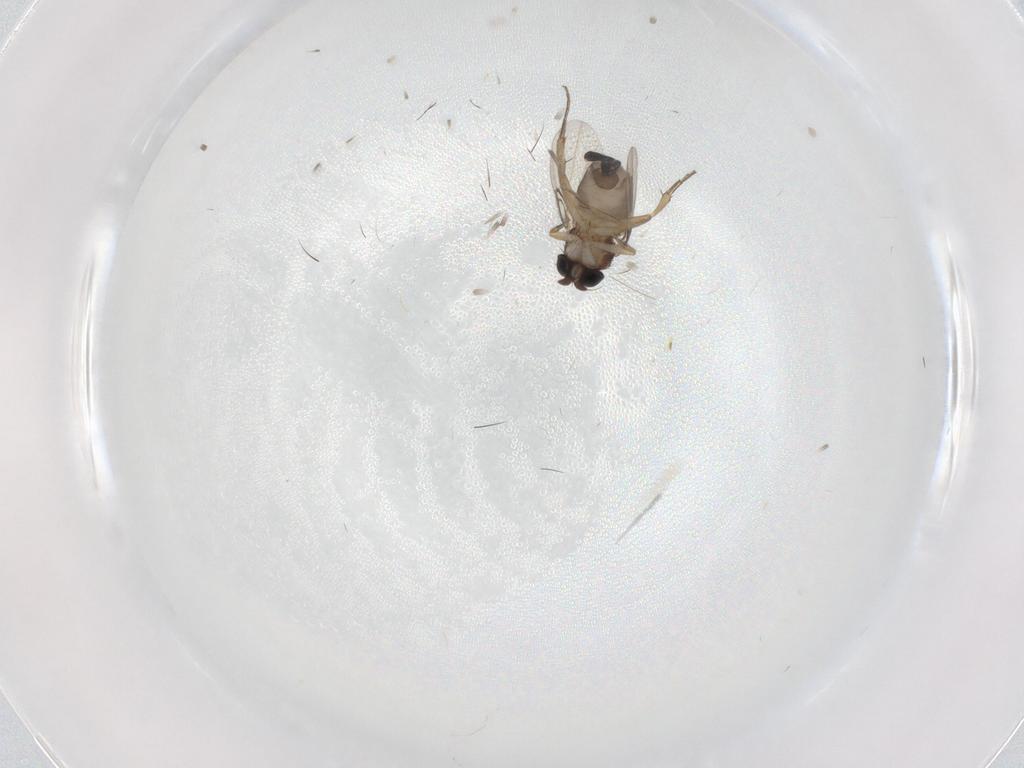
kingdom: Animalia
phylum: Arthropoda
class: Insecta
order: Diptera
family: Phoridae
